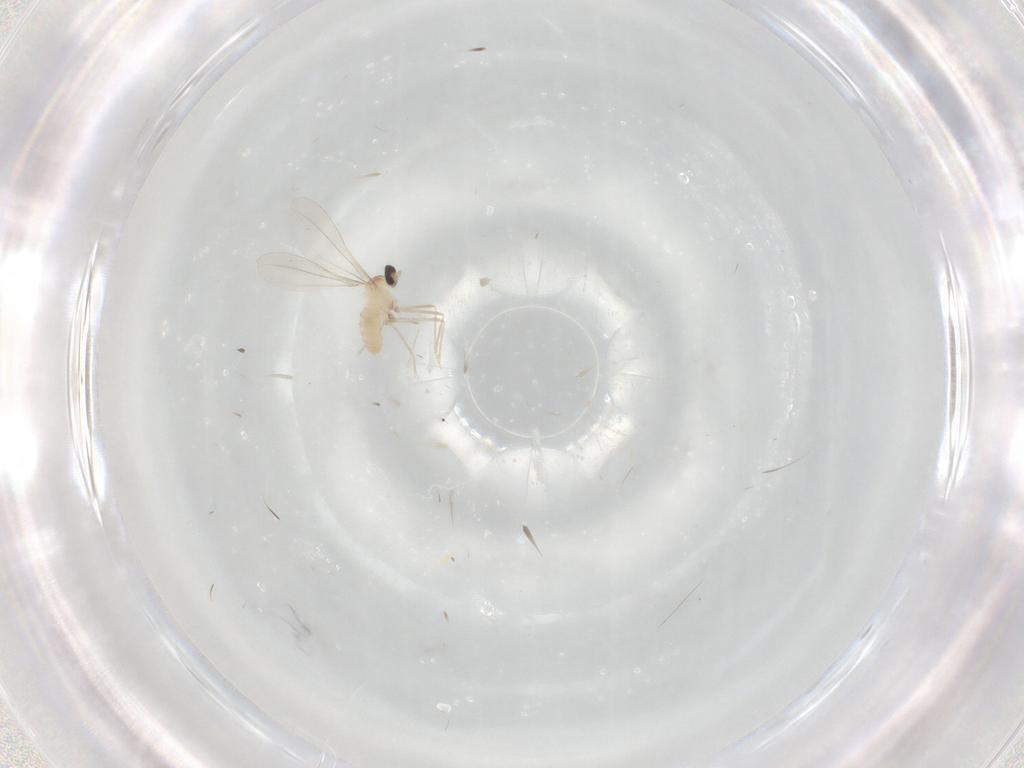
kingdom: Animalia
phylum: Arthropoda
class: Insecta
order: Diptera
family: Cecidomyiidae
